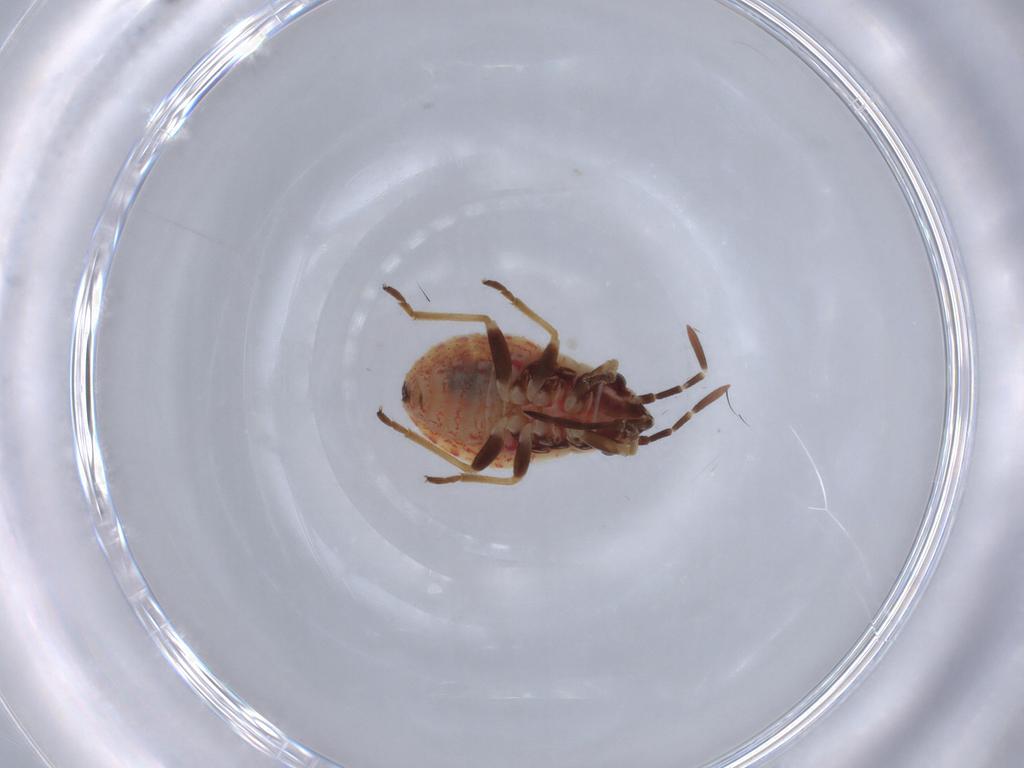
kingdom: Animalia
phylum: Arthropoda
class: Insecta
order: Hemiptera
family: Lygaeidae
